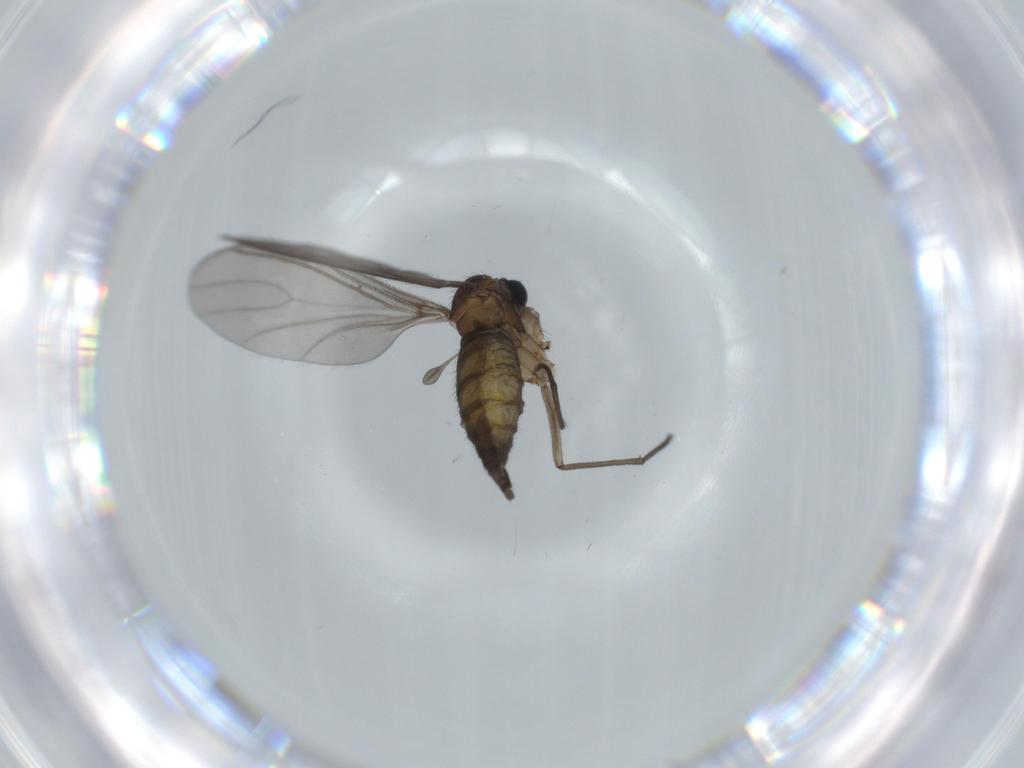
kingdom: Animalia
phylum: Arthropoda
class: Insecta
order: Diptera
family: Sciaridae
